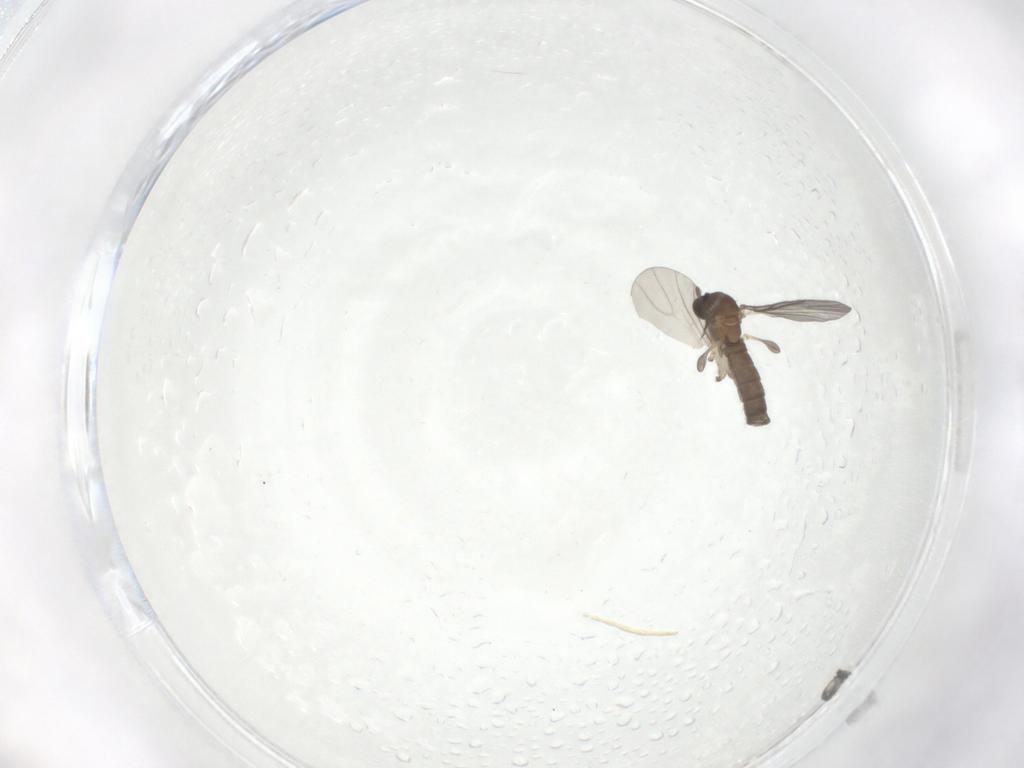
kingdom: Animalia
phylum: Arthropoda
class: Insecta
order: Diptera
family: Sciaridae
